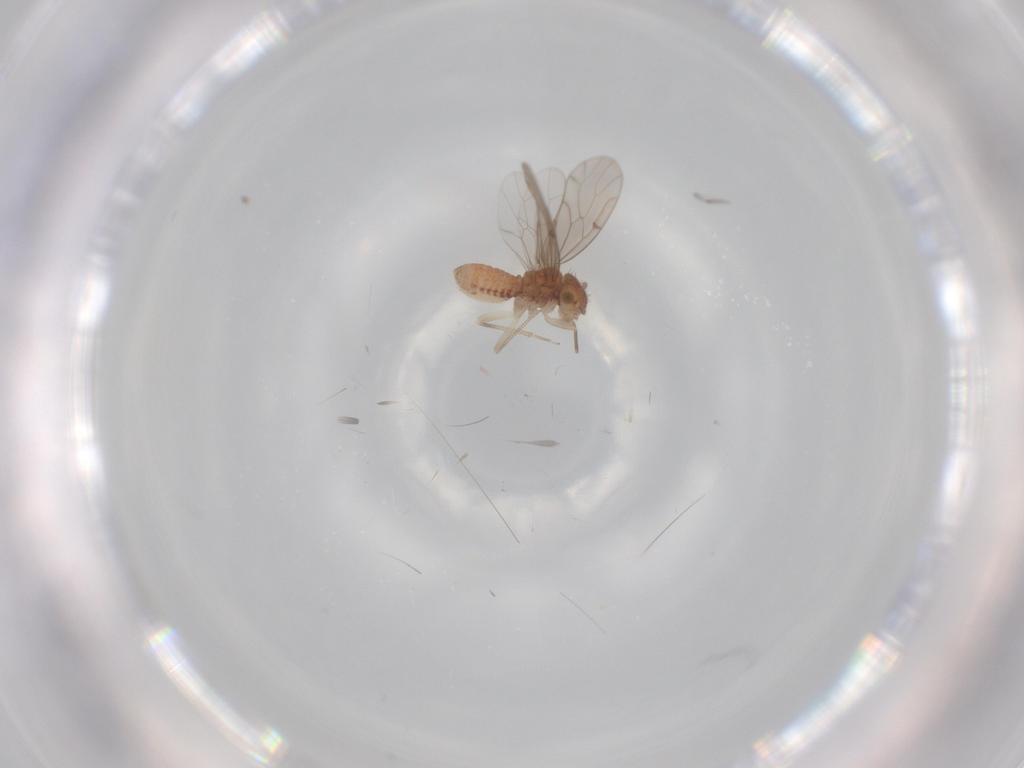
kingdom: Animalia
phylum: Arthropoda
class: Insecta
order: Psocodea
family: Ectopsocidae
